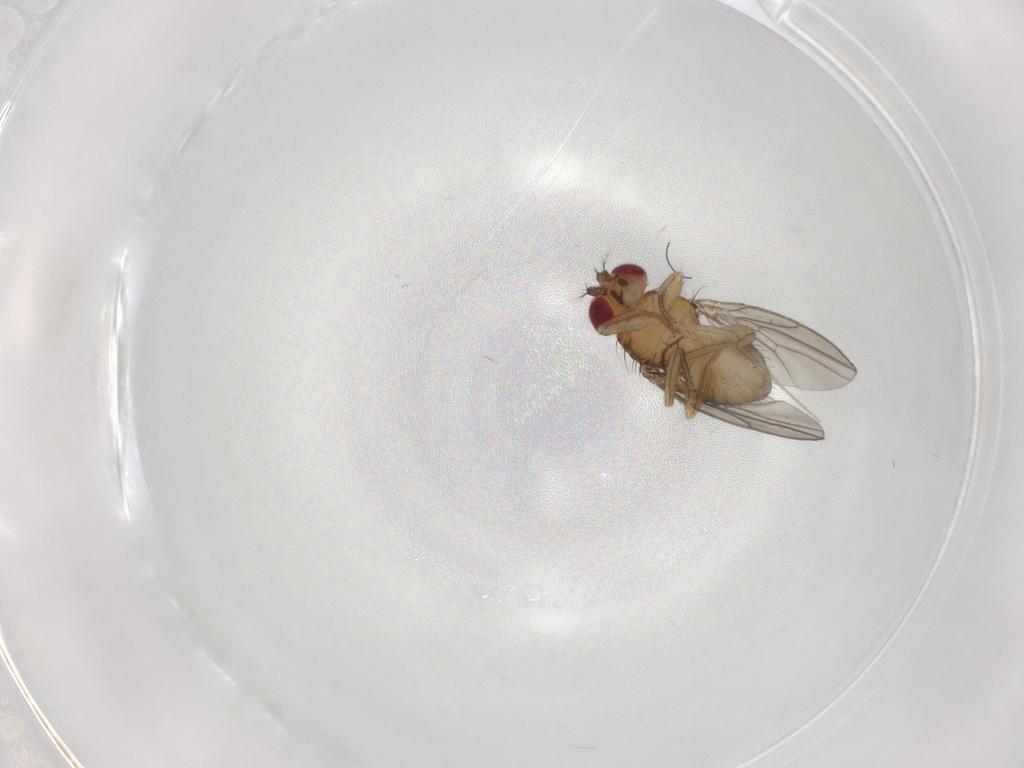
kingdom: Animalia
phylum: Arthropoda
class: Insecta
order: Diptera
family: Drosophilidae
